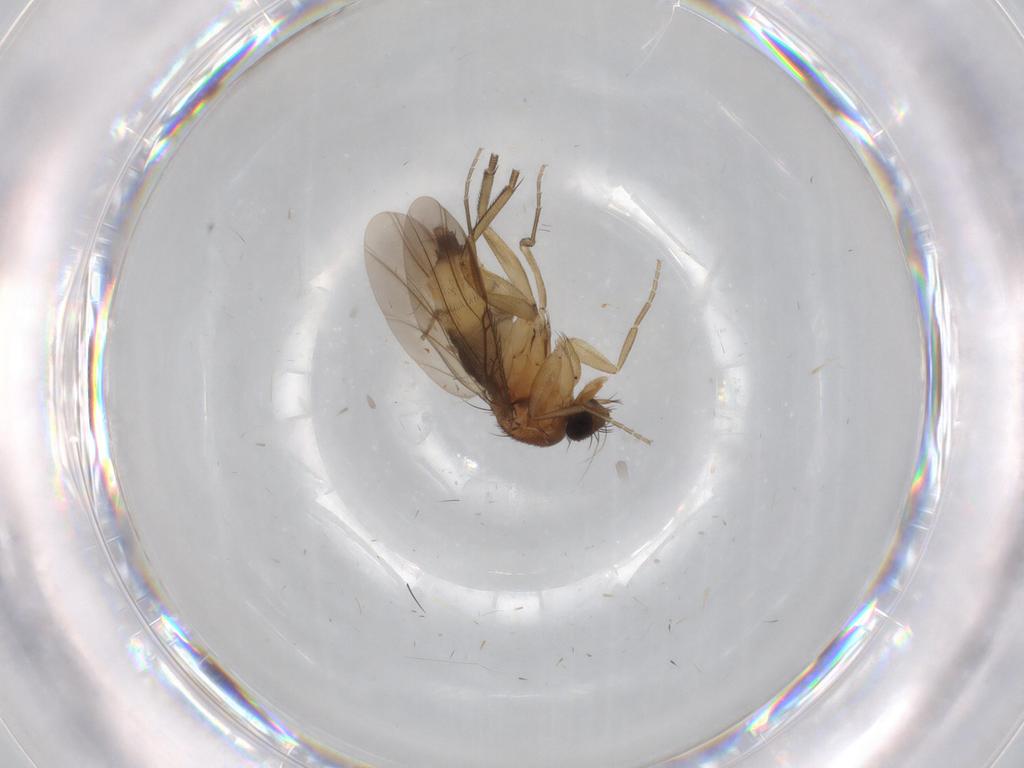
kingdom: Animalia
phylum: Arthropoda
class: Insecta
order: Diptera
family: Phoridae
